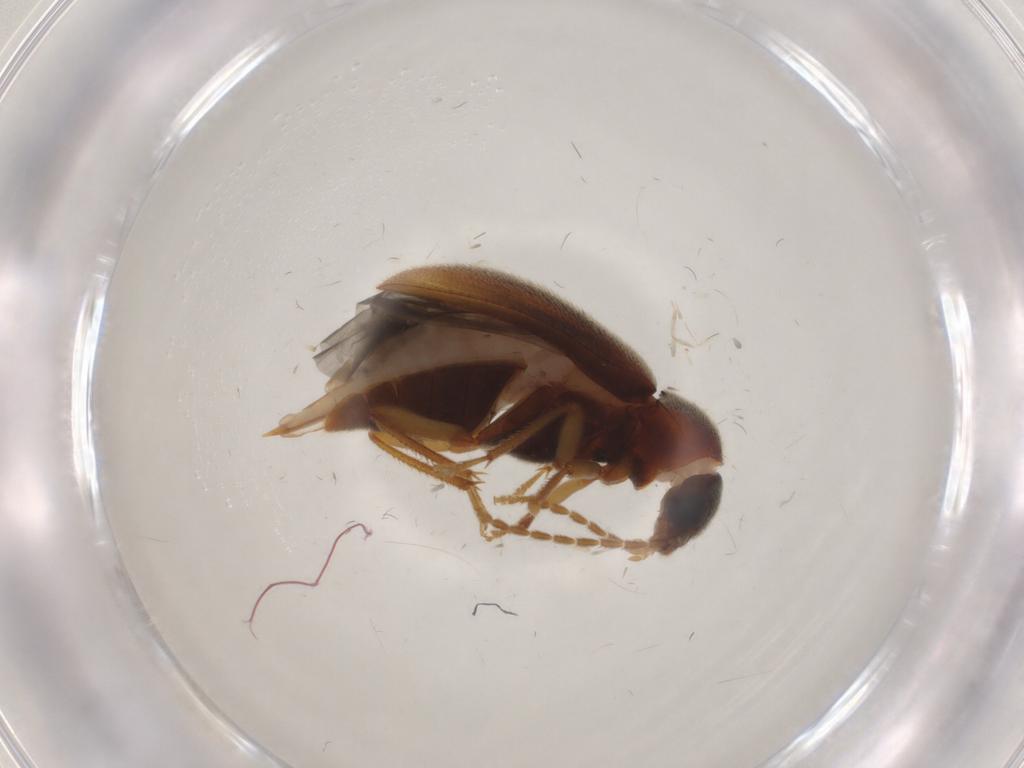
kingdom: Animalia
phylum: Arthropoda
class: Insecta
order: Coleoptera
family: Ptilodactylidae
